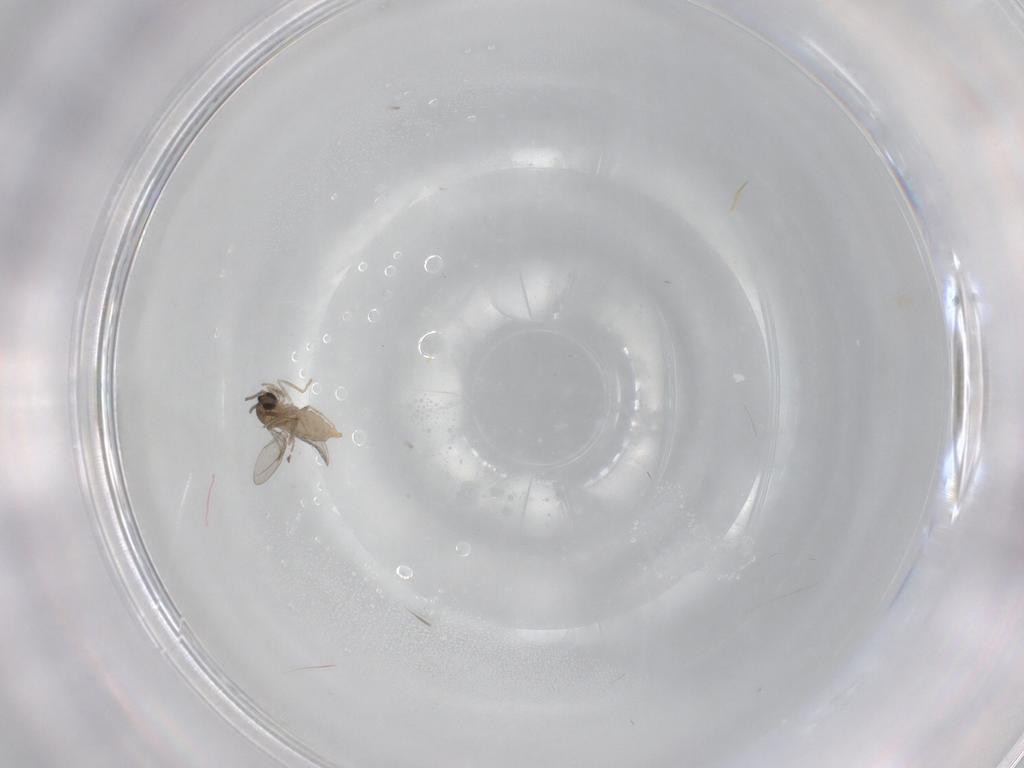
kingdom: Animalia
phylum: Arthropoda
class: Insecta
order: Diptera
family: Cecidomyiidae
